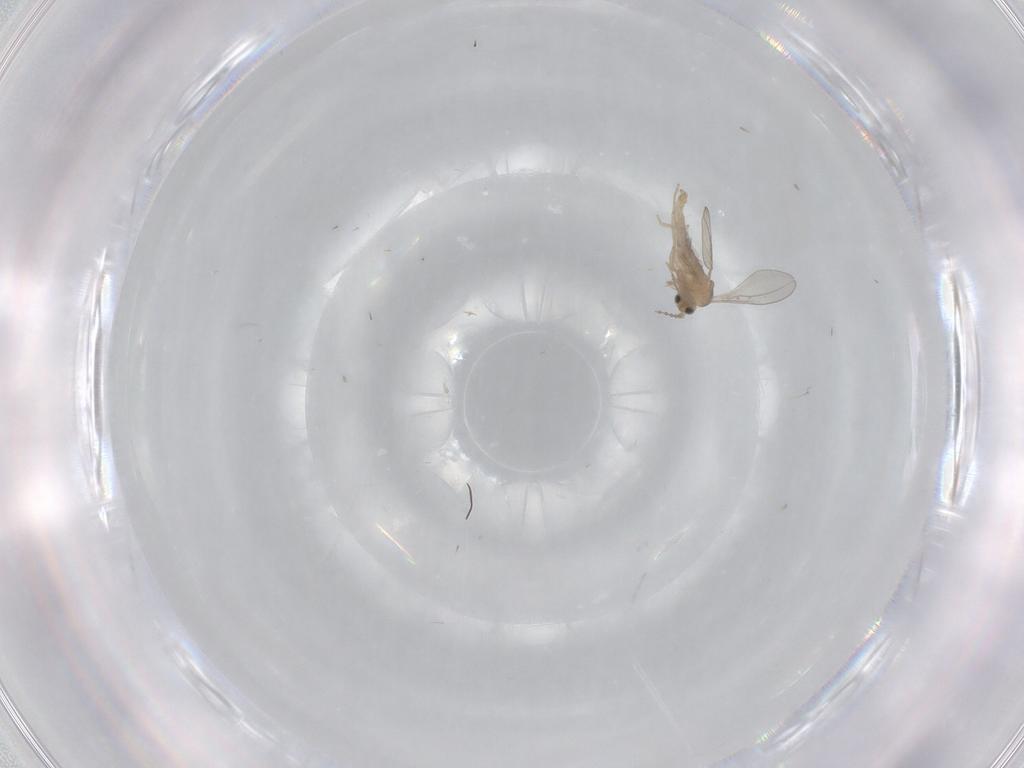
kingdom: Animalia
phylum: Arthropoda
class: Insecta
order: Diptera
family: Cecidomyiidae
